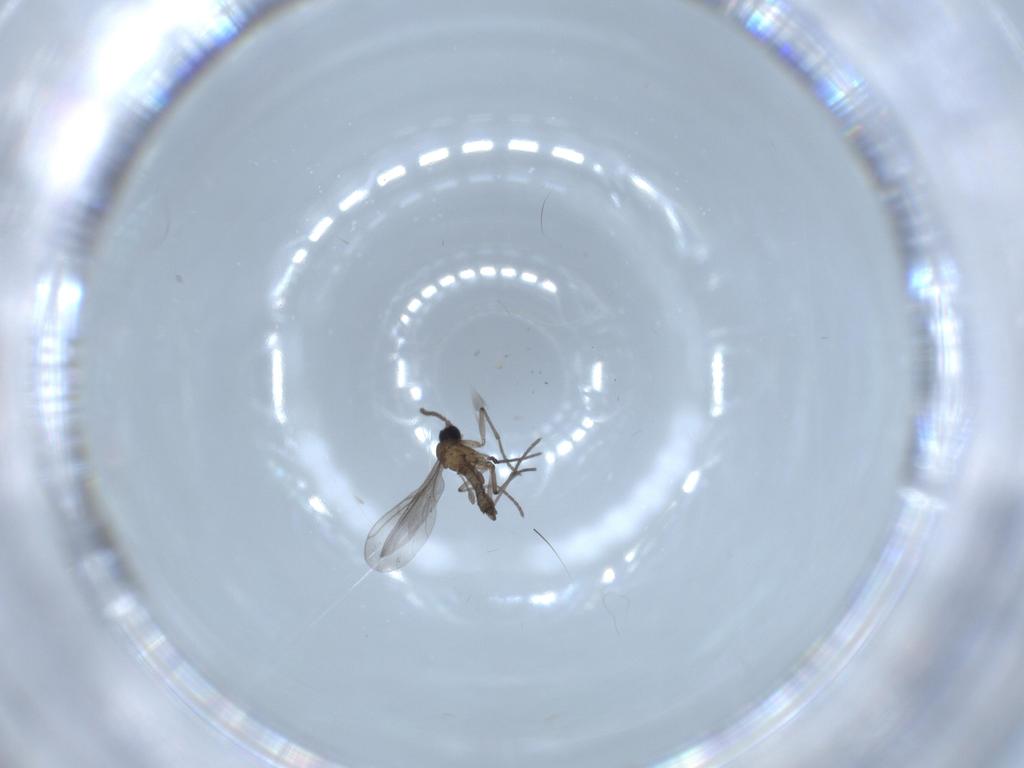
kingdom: Animalia
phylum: Arthropoda
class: Insecta
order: Diptera
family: Sciaridae
